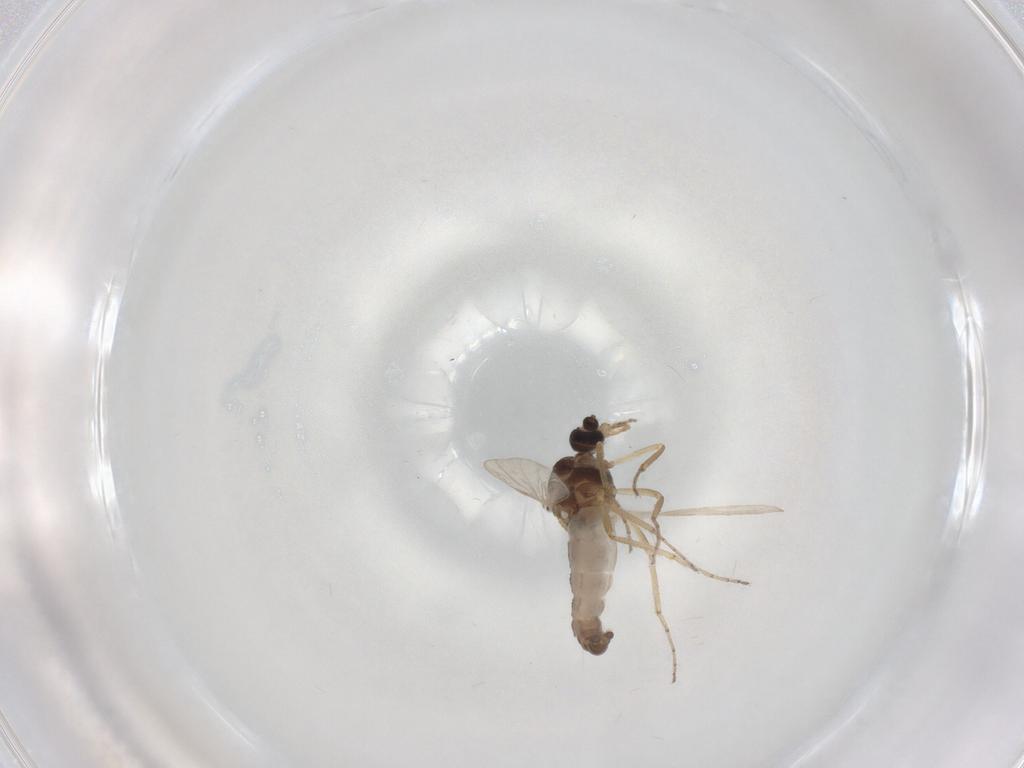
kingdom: Animalia
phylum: Arthropoda
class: Insecta
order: Diptera
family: Ceratopogonidae
